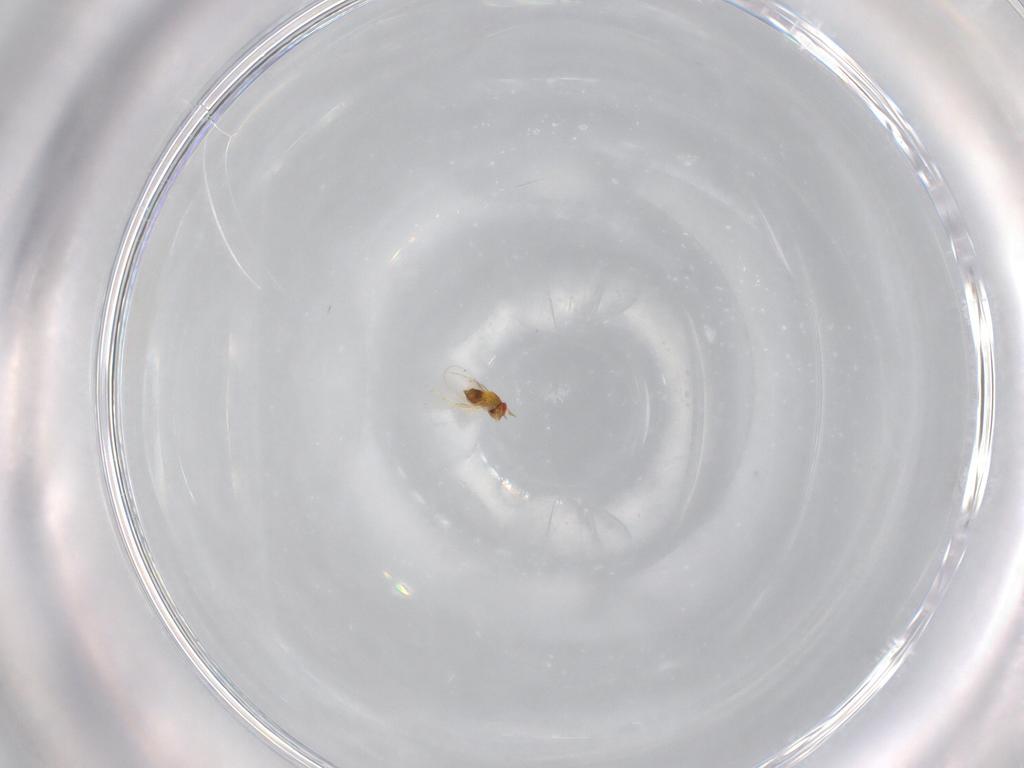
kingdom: Animalia
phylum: Arthropoda
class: Insecta
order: Hymenoptera
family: Trichogrammatidae
